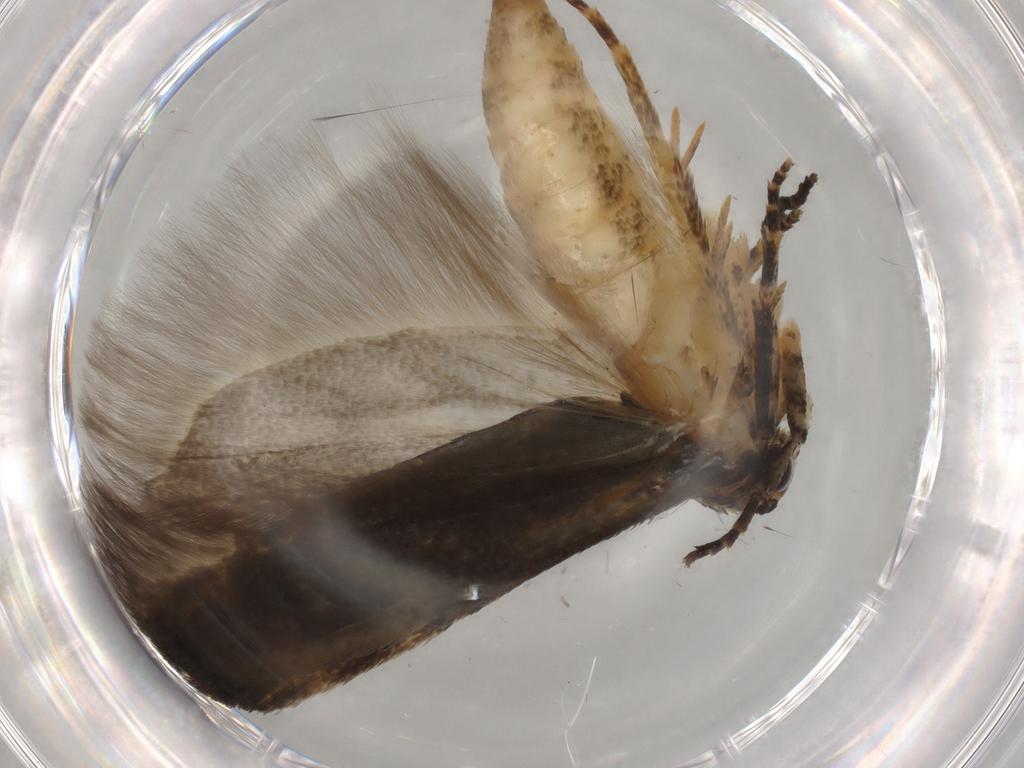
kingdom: Animalia
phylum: Arthropoda
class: Insecta
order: Lepidoptera
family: Gelechiidae
